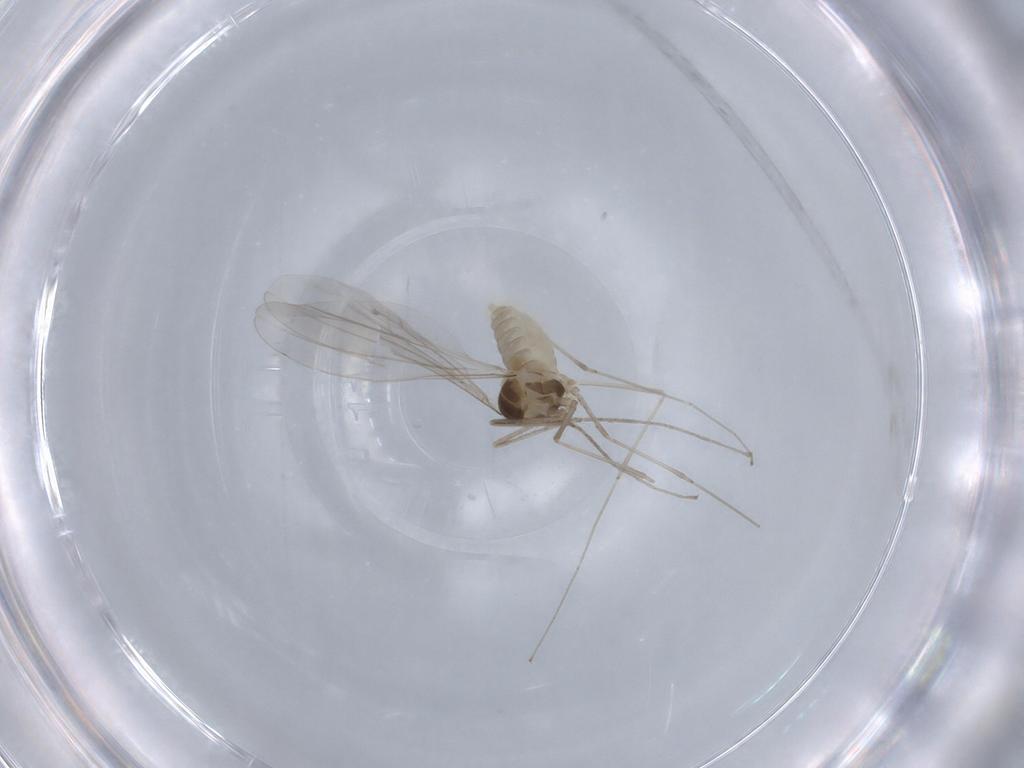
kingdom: Animalia
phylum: Arthropoda
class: Insecta
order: Diptera
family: Cecidomyiidae
